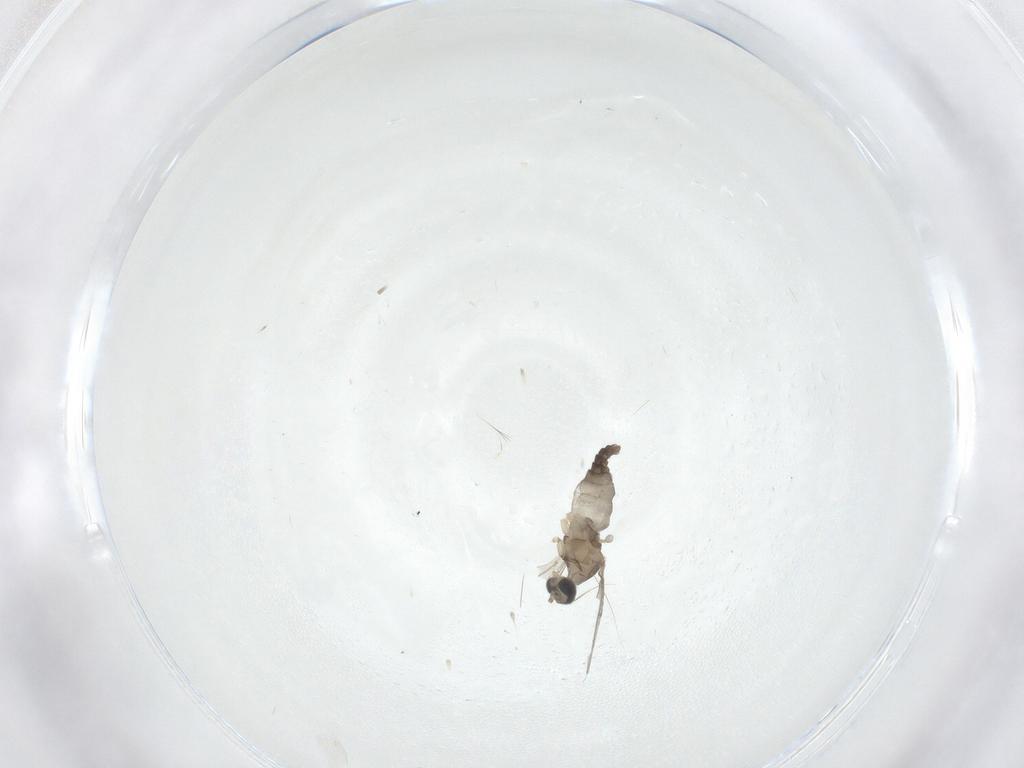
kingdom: Animalia
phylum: Arthropoda
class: Insecta
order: Diptera
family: Cecidomyiidae
